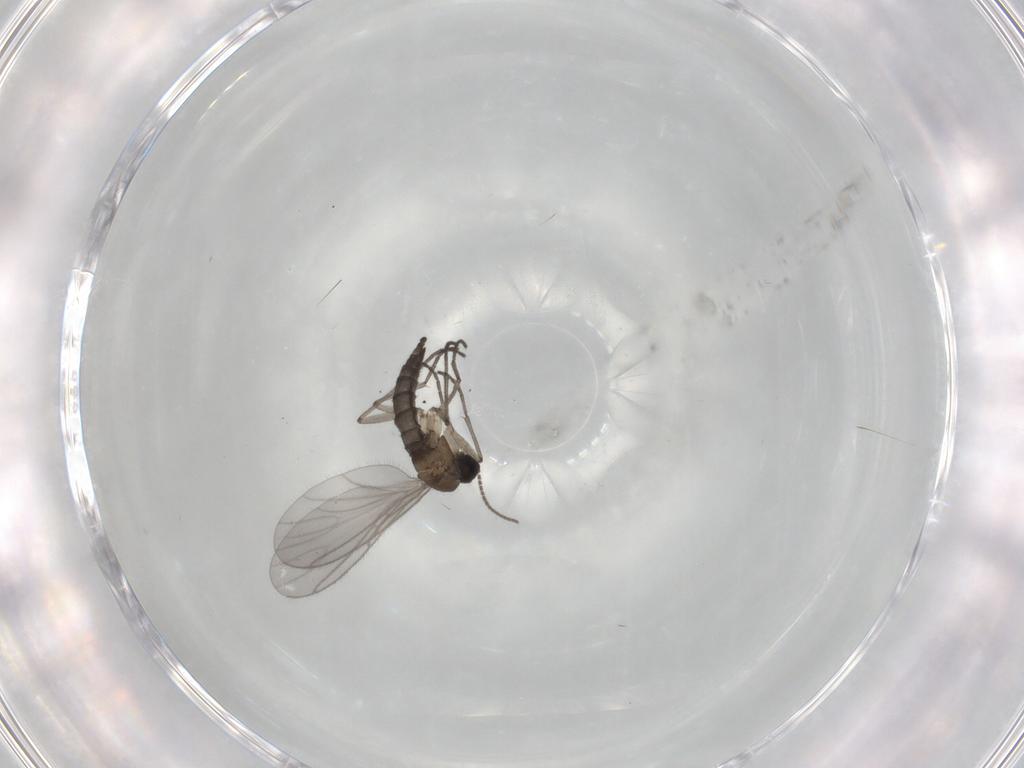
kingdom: Animalia
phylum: Arthropoda
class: Insecta
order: Diptera
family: Sciaridae
